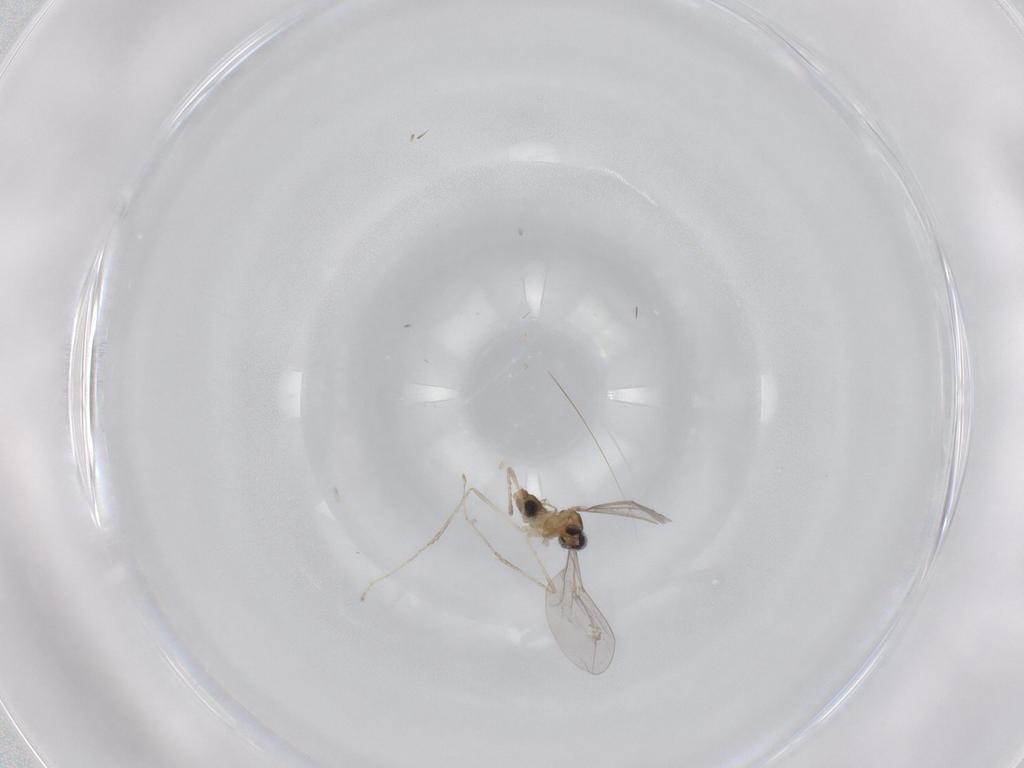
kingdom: Animalia
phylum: Arthropoda
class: Insecta
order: Diptera
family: Cecidomyiidae
